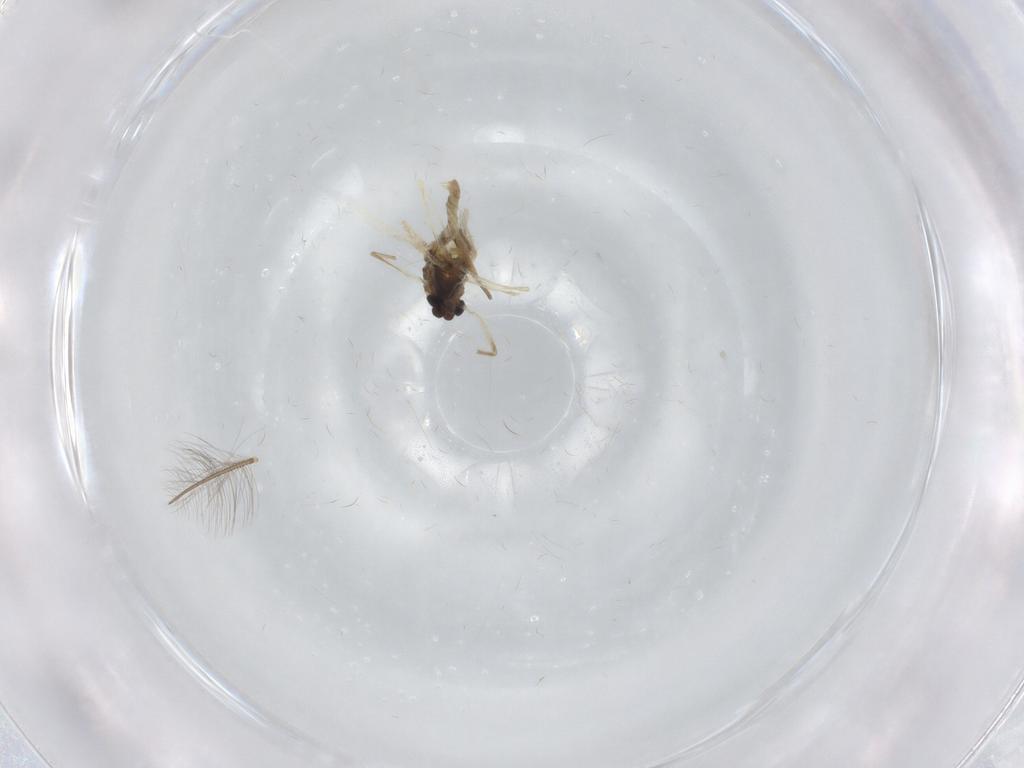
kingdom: Animalia
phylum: Arthropoda
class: Insecta
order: Diptera
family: Chironomidae
